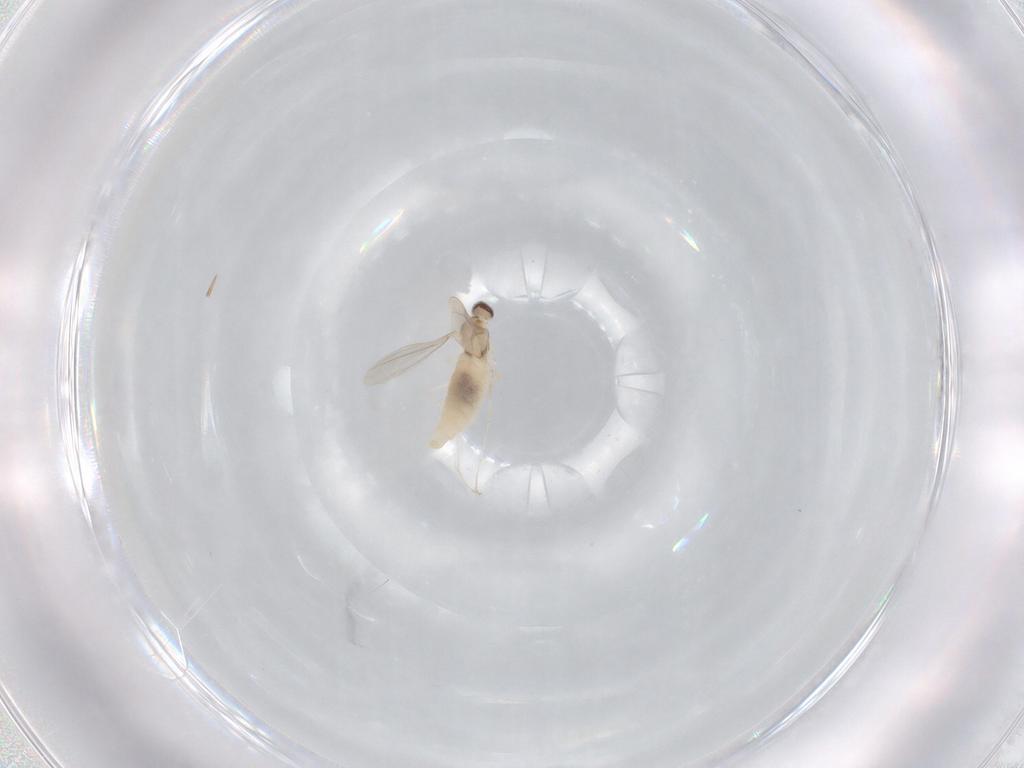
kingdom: Animalia
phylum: Arthropoda
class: Insecta
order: Diptera
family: Cecidomyiidae
